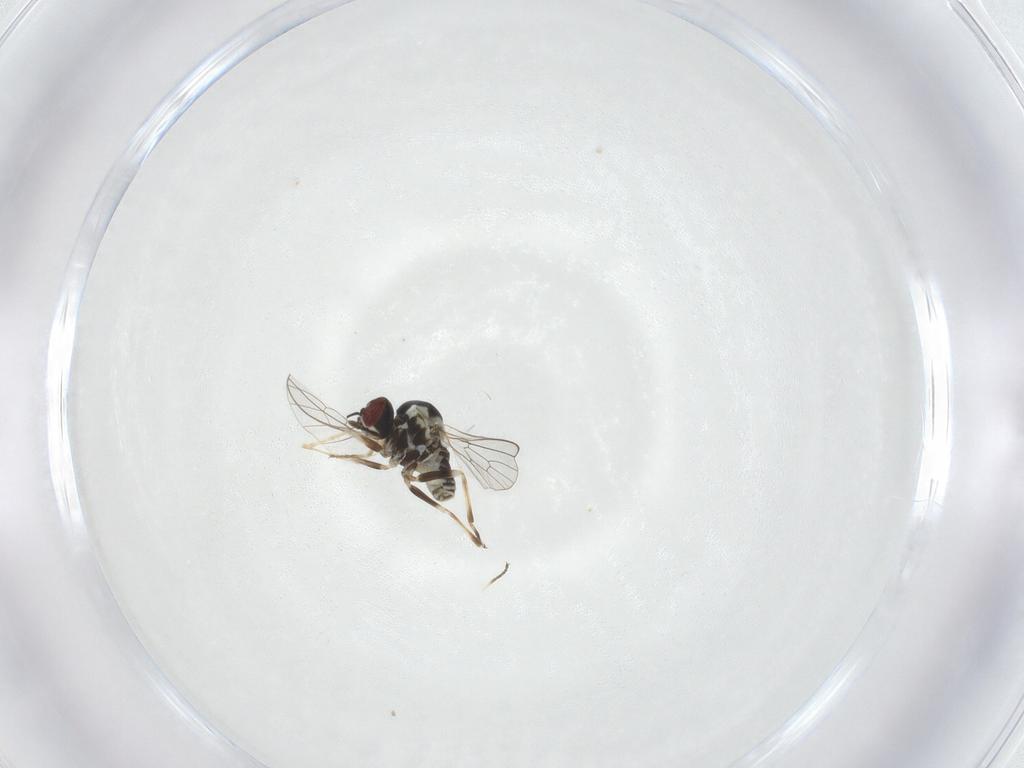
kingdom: Animalia
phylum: Arthropoda
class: Insecta
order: Diptera
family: Bombyliidae
